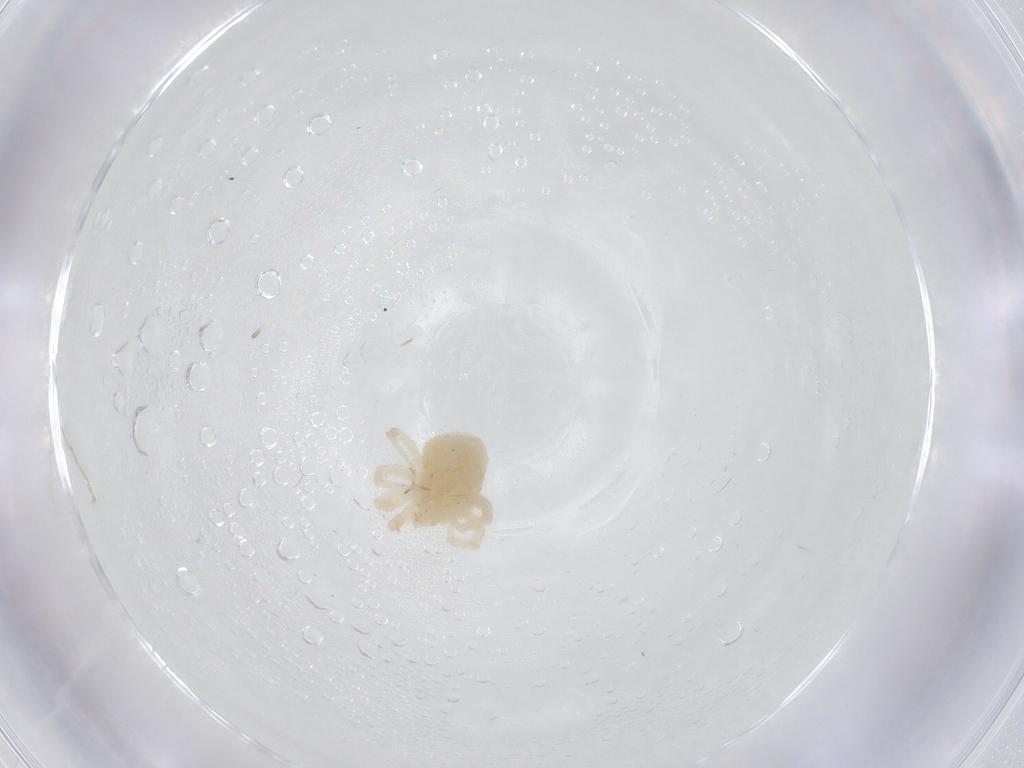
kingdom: Animalia
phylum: Arthropoda
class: Arachnida
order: Trombidiformes
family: Anystidae
